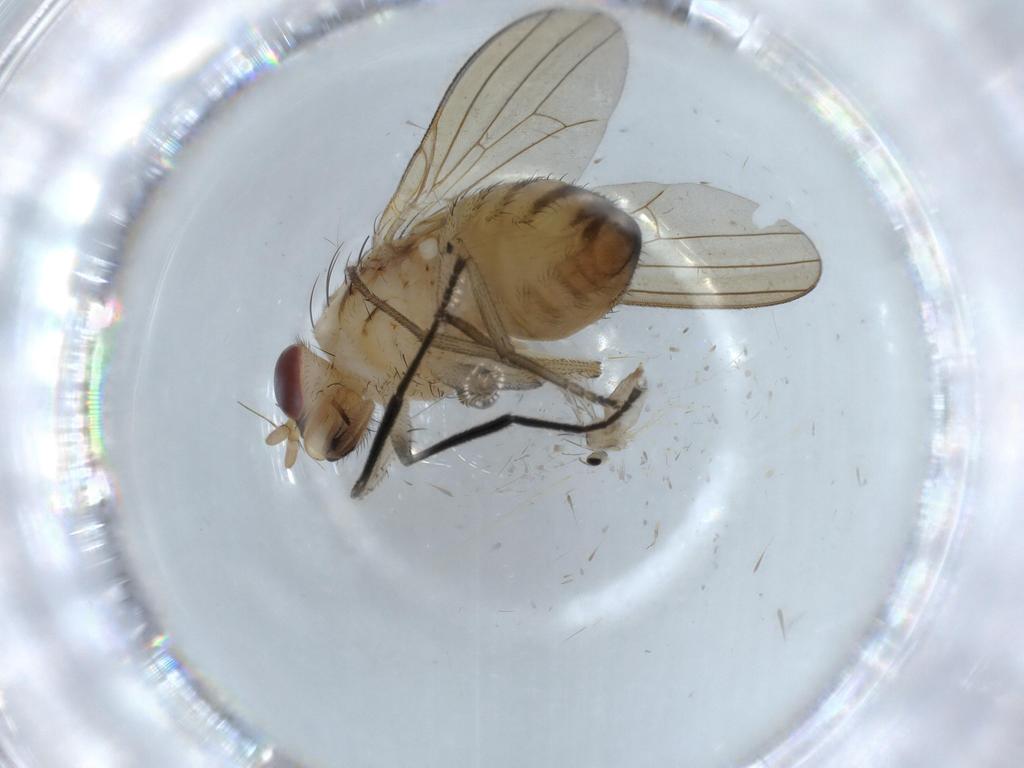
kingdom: Animalia
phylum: Arthropoda
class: Insecta
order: Diptera
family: Cecidomyiidae
